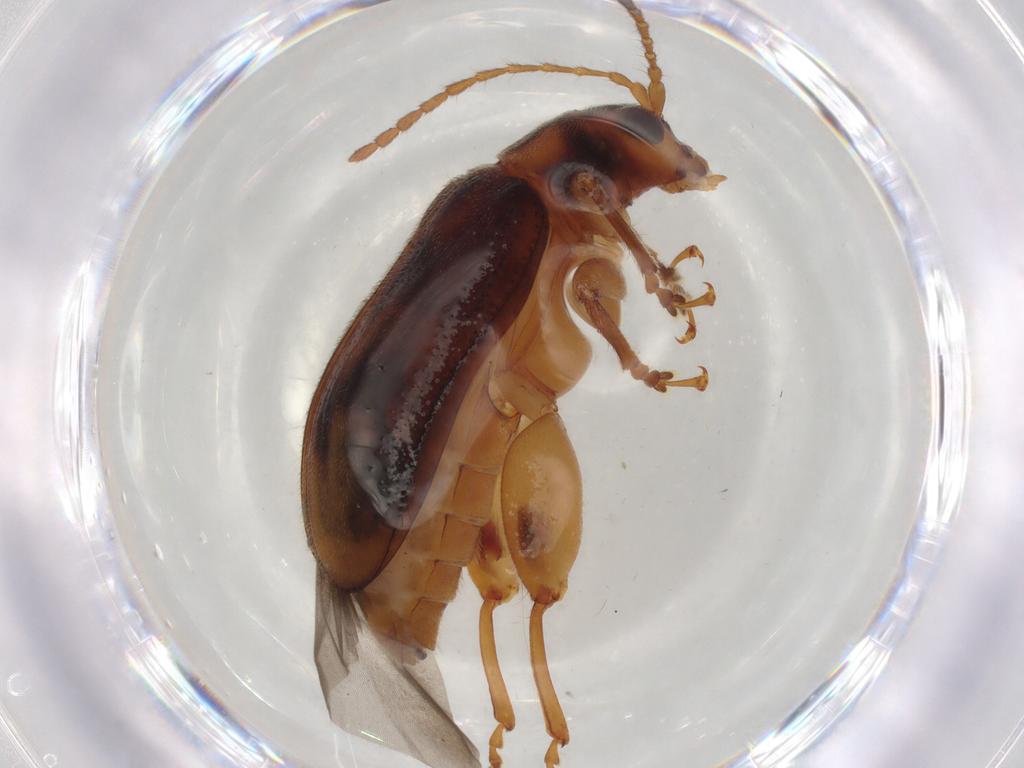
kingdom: Animalia
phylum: Arthropoda
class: Insecta
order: Coleoptera
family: Chrysomelidae
